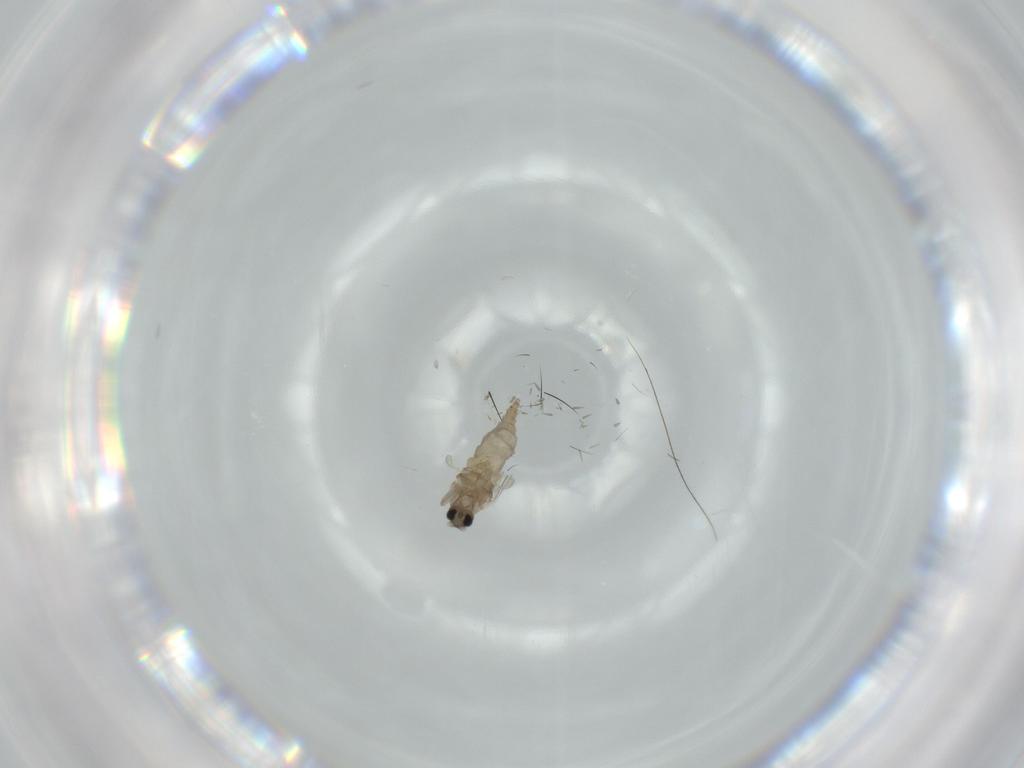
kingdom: Animalia
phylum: Arthropoda
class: Insecta
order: Diptera
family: Cecidomyiidae
